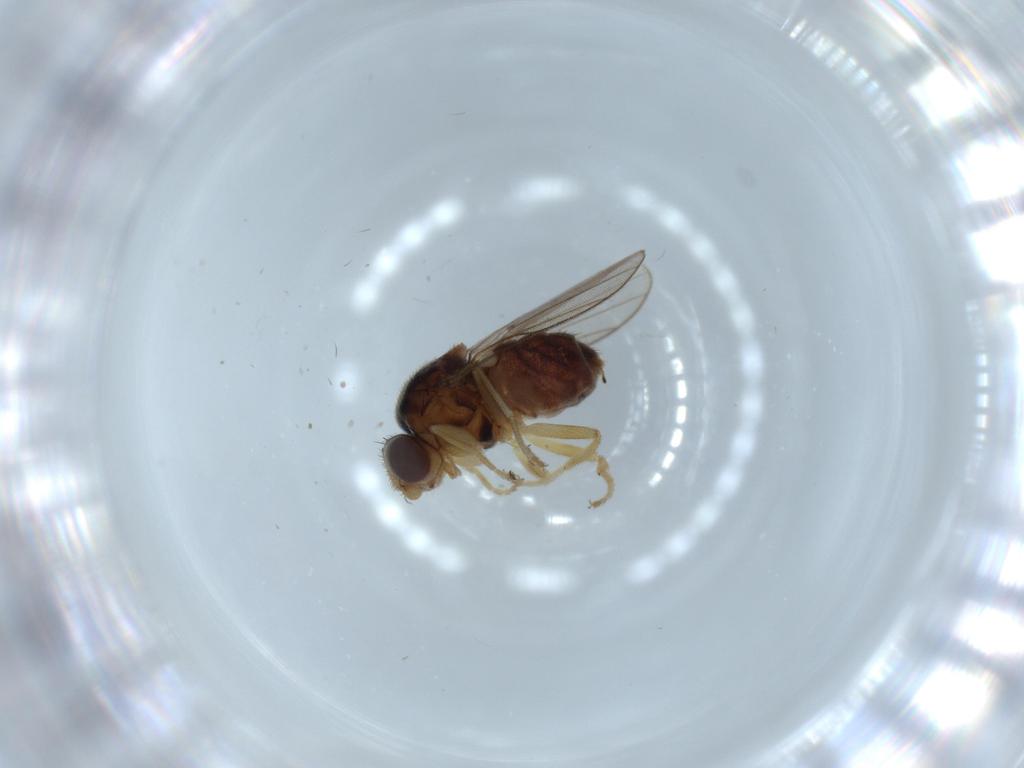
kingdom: Animalia
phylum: Arthropoda
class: Insecta
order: Diptera
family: Chloropidae
